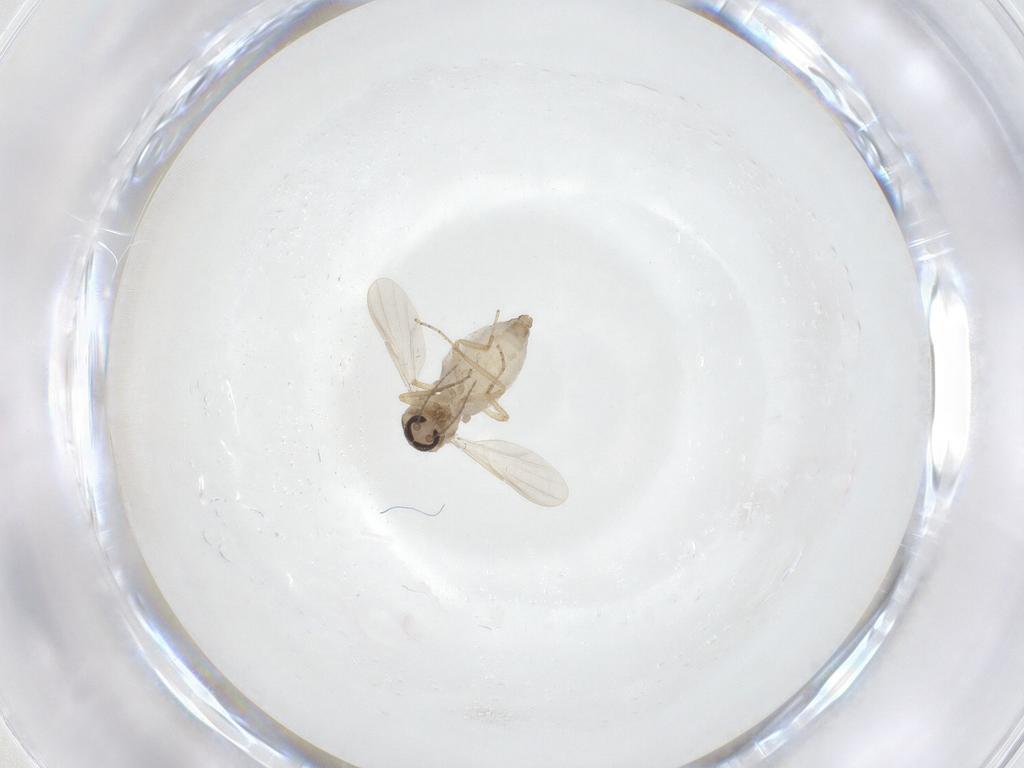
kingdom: Animalia
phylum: Arthropoda
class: Insecta
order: Diptera
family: Ceratopogonidae
